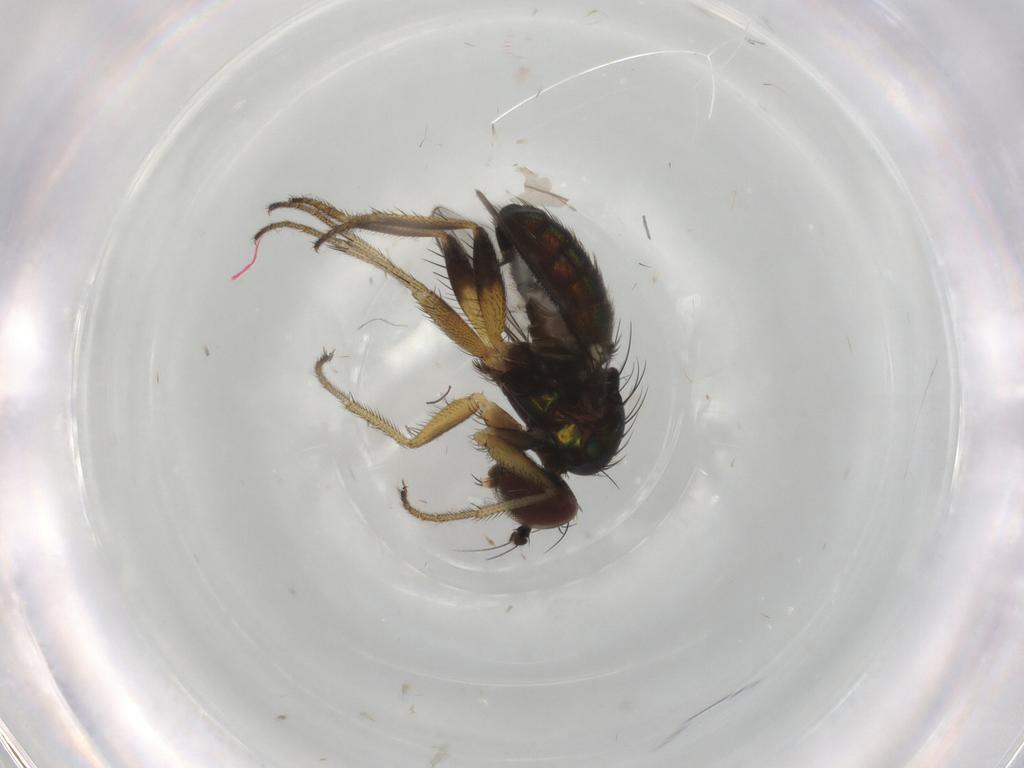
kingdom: Animalia
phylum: Arthropoda
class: Insecta
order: Diptera
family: Dolichopodidae
